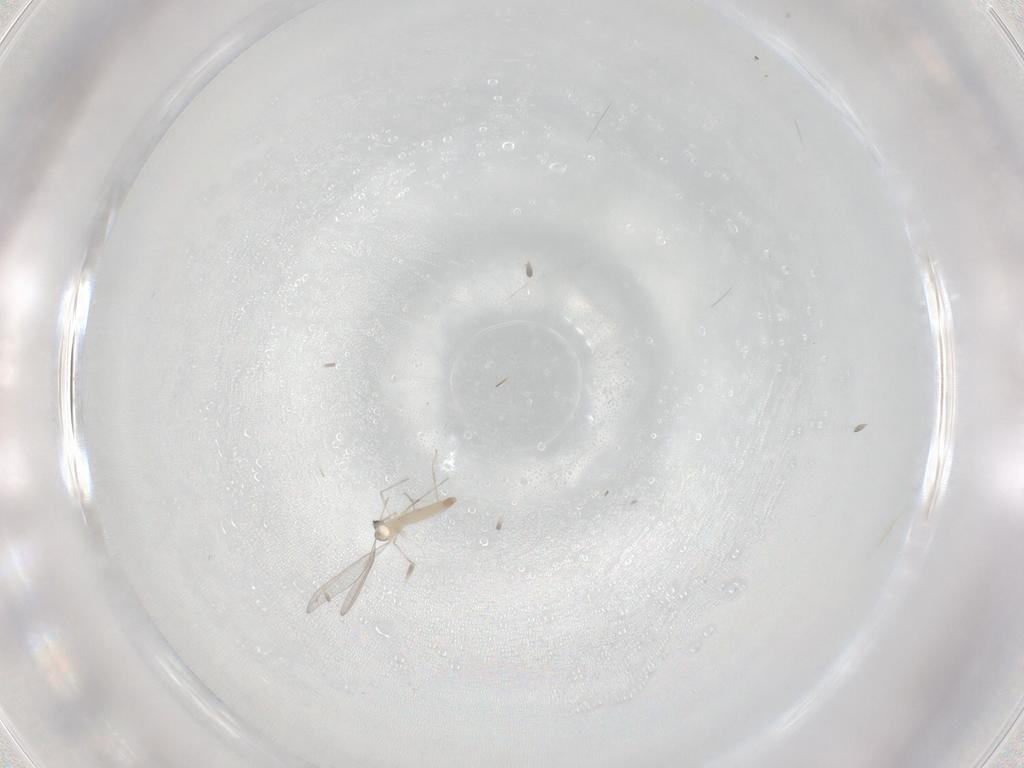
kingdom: Animalia
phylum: Arthropoda
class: Insecta
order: Diptera
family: Cecidomyiidae
